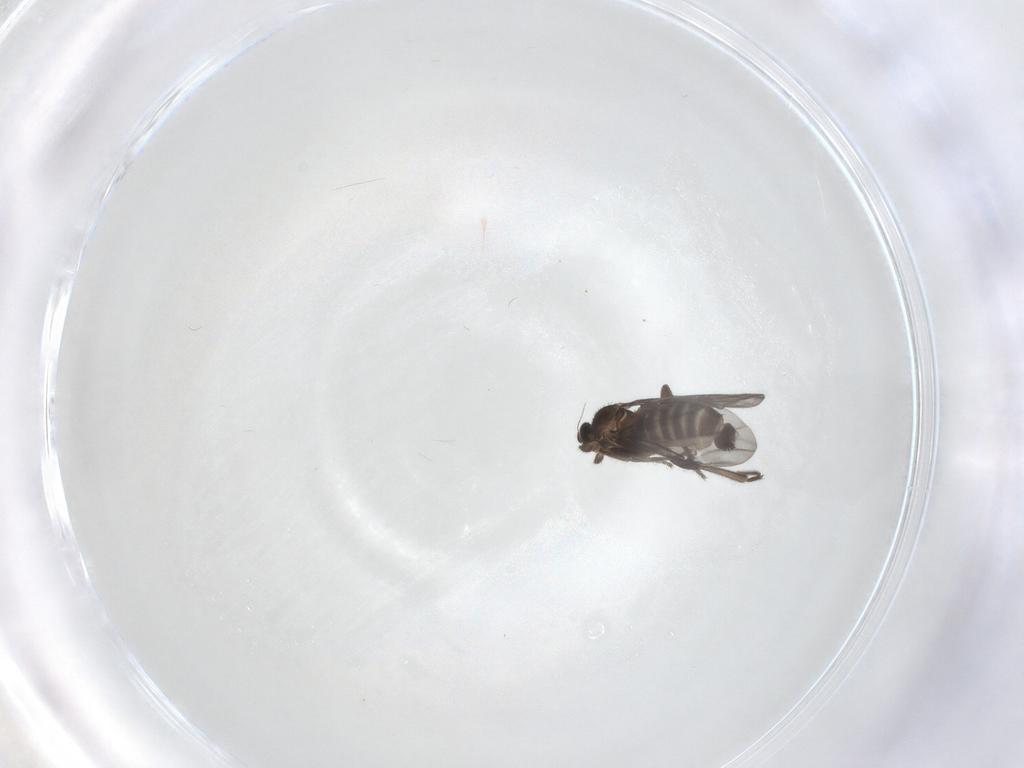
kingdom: Animalia
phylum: Arthropoda
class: Insecta
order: Diptera
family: Phoridae
